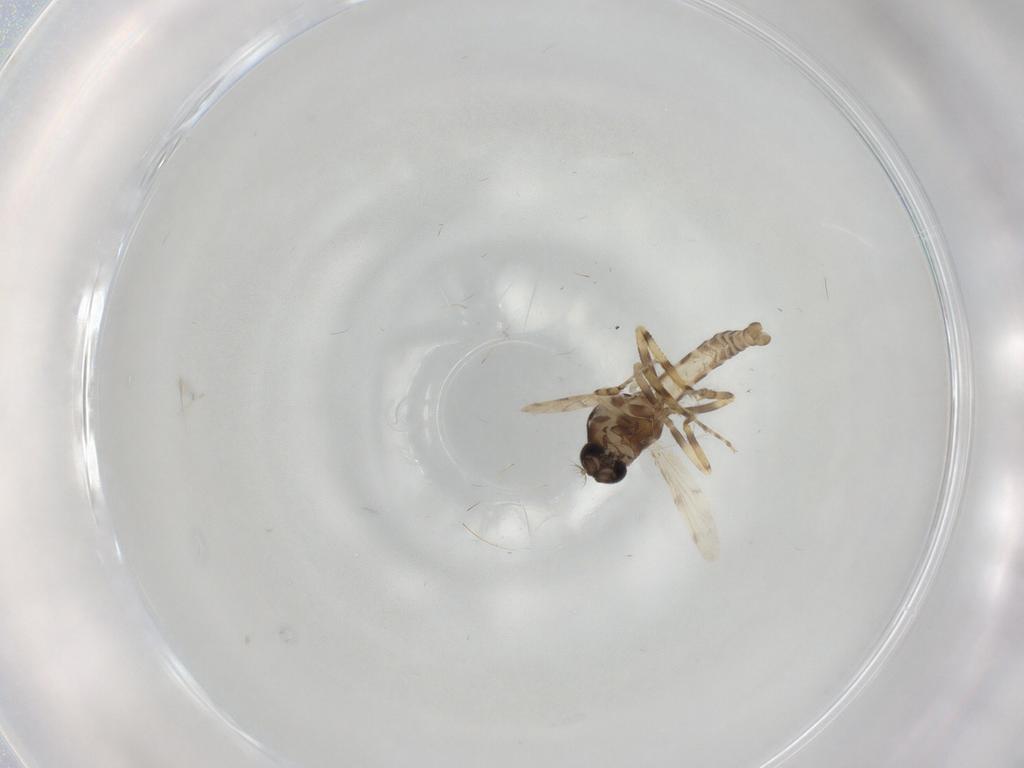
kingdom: Animalia
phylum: Arthropoda
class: Insecta
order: Diptera
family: Ceratopogonidae
